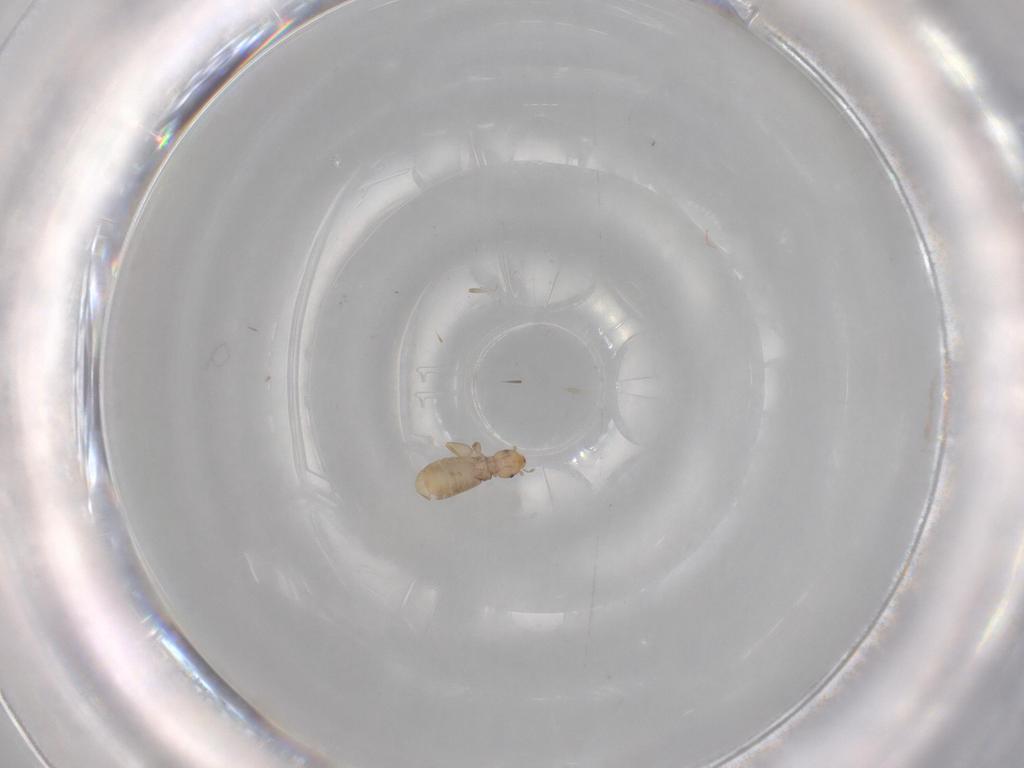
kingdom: Animalia
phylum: Arthropoda
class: Insecta
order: Psocodea
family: Liposcelididae
